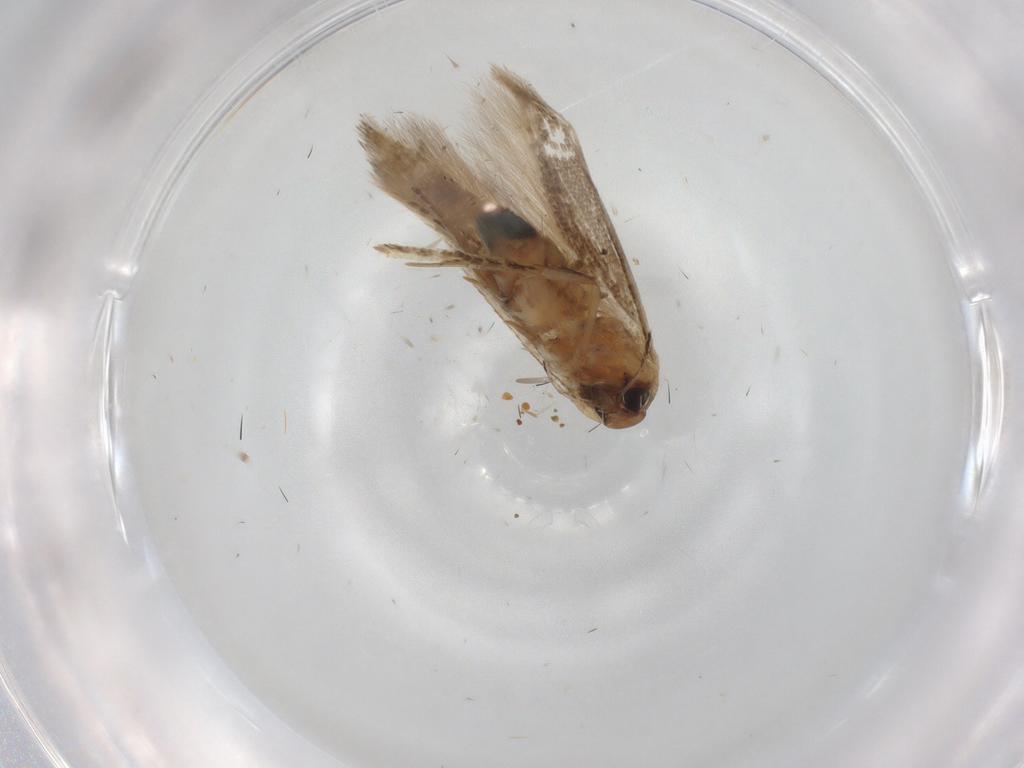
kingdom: Animalia
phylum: Arthropoda
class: Insecta
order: Lepidoptera
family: Cosmopterigidae
